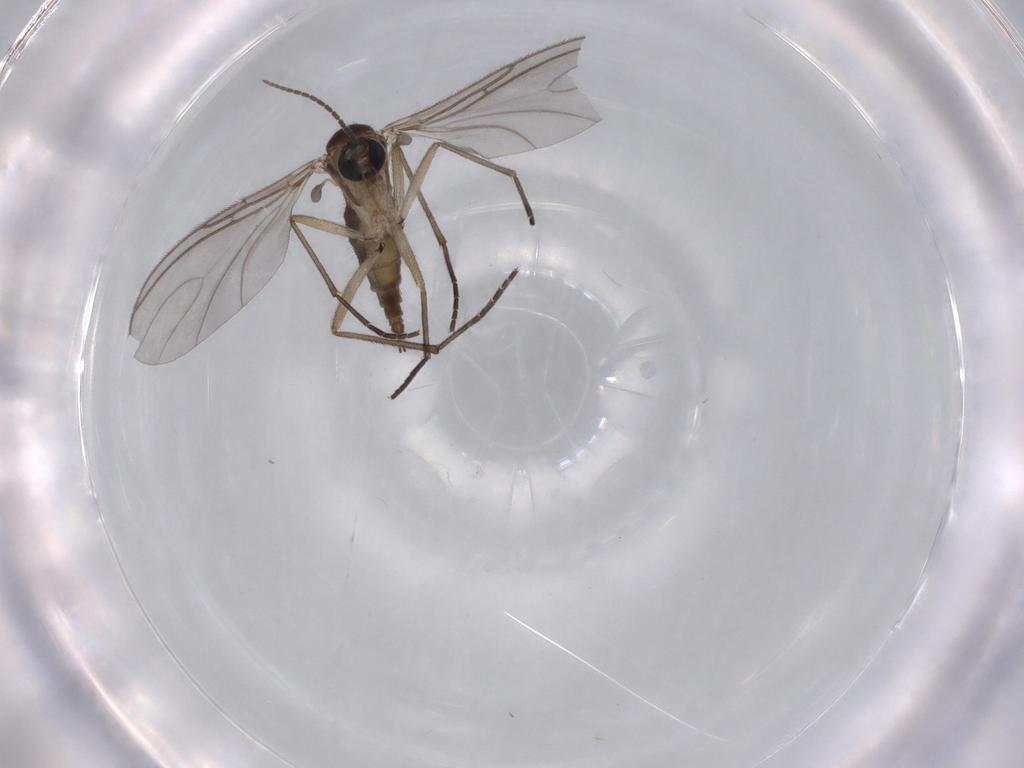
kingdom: Animalia
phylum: Arthropoda
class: Insecta
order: Diptera
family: Sciaridae
